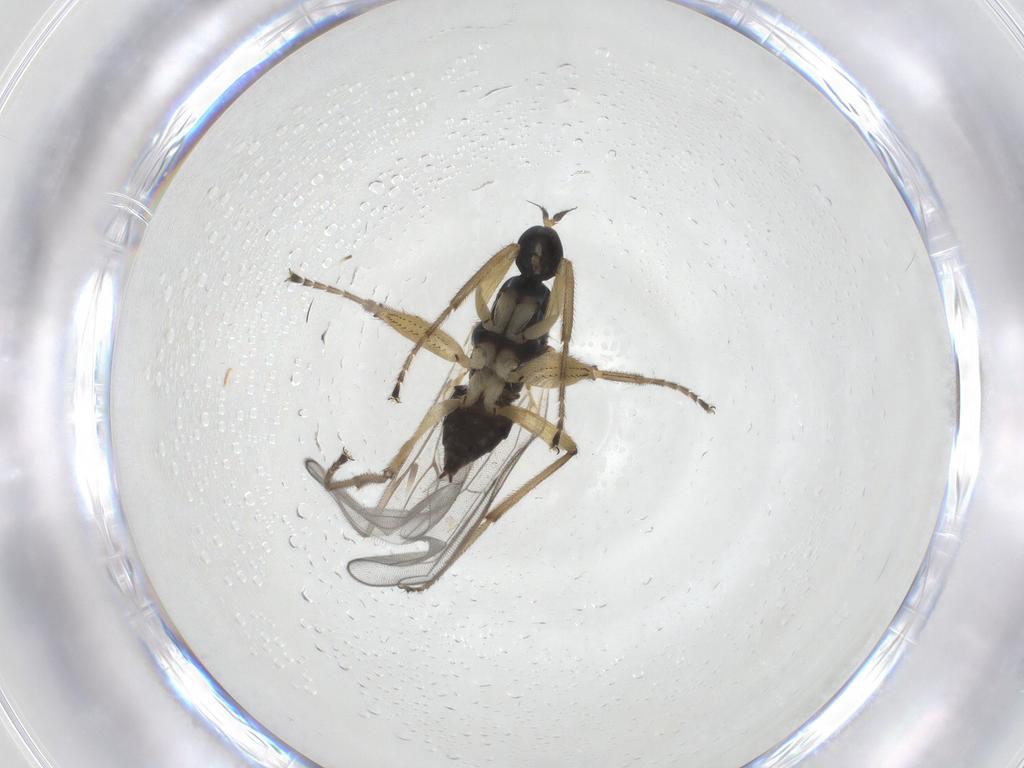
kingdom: Animalia
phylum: Arthropoda
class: Insecta
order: Diptera
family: Hybotidae
